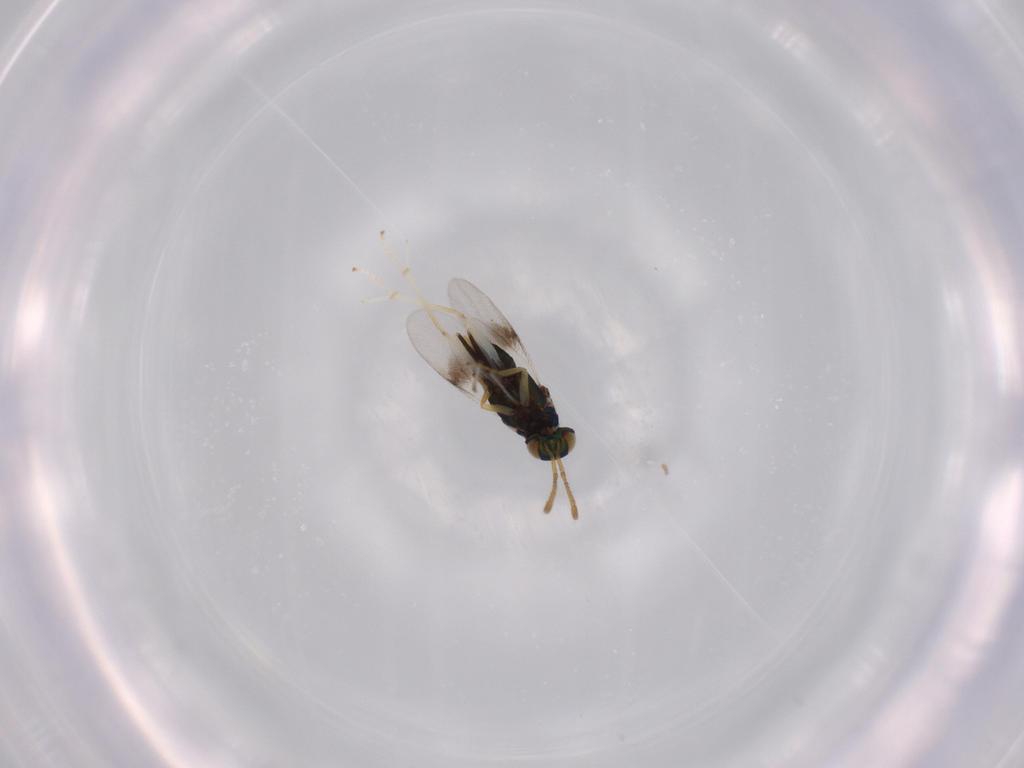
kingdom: Animalia
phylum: Arthropoda
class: Insecta
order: Hymenoptera
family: Encyrtidae
